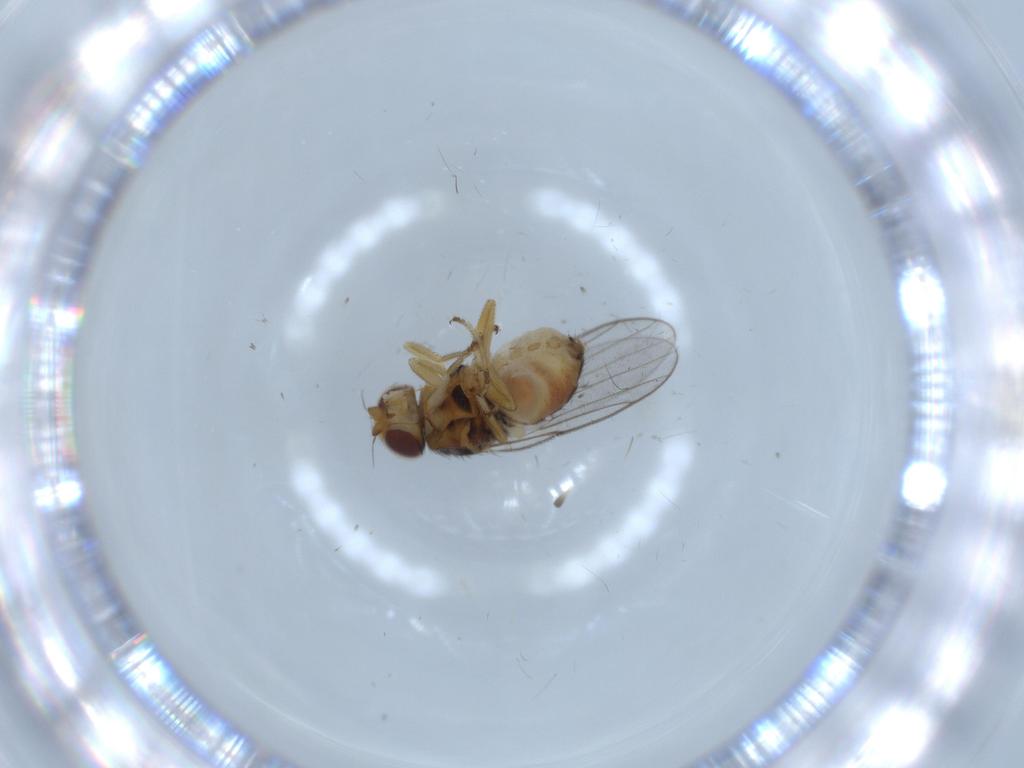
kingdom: Animalia
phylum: Arthropoda
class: Insecta
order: Diptera
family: Chloropidae
